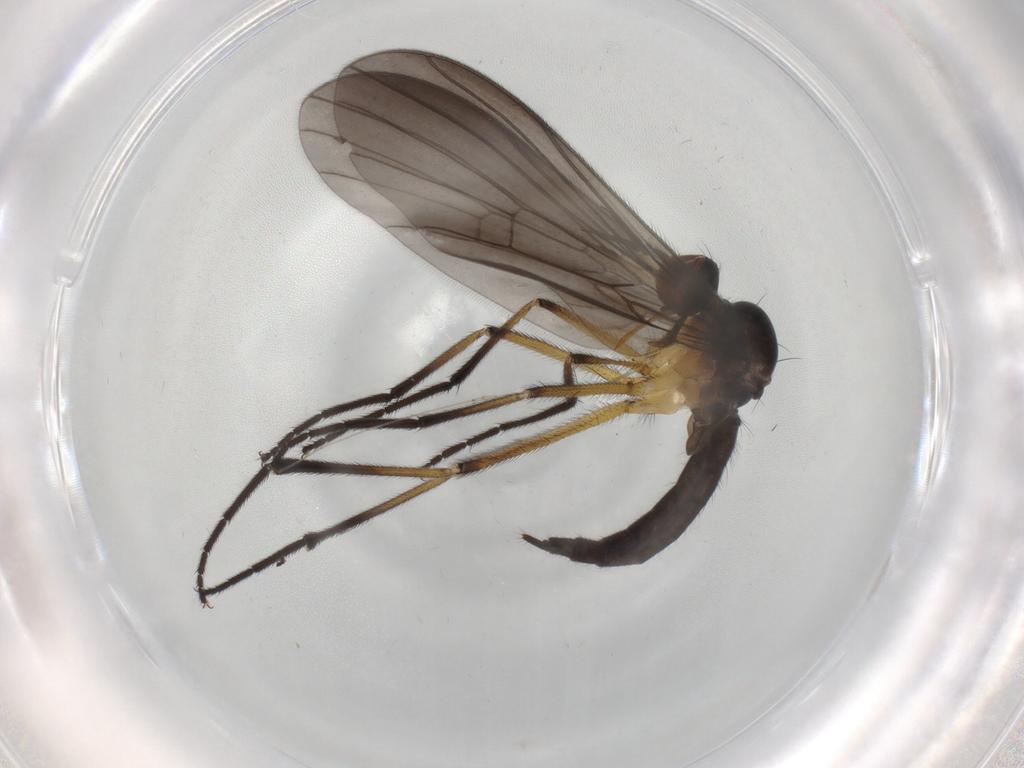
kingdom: Animalia
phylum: Arthropoda
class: Insecta
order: Diptera
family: Empididae
